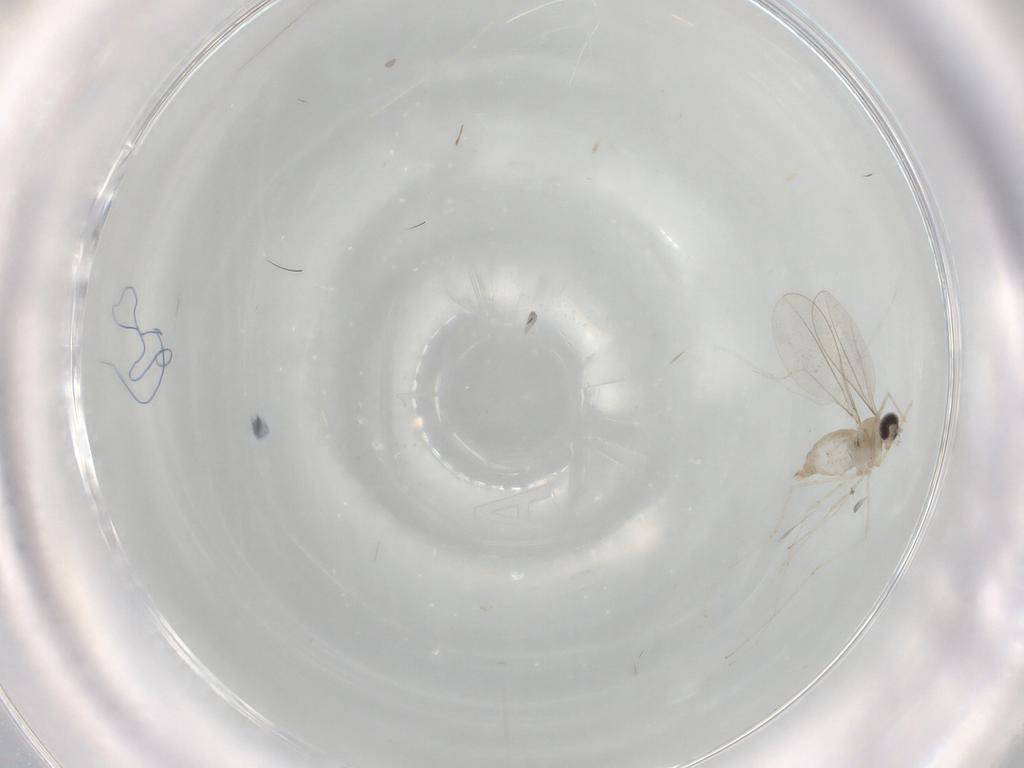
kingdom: Animalia
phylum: Arthropoda
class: Insecta
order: Diptera
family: Cecidomyiidae
